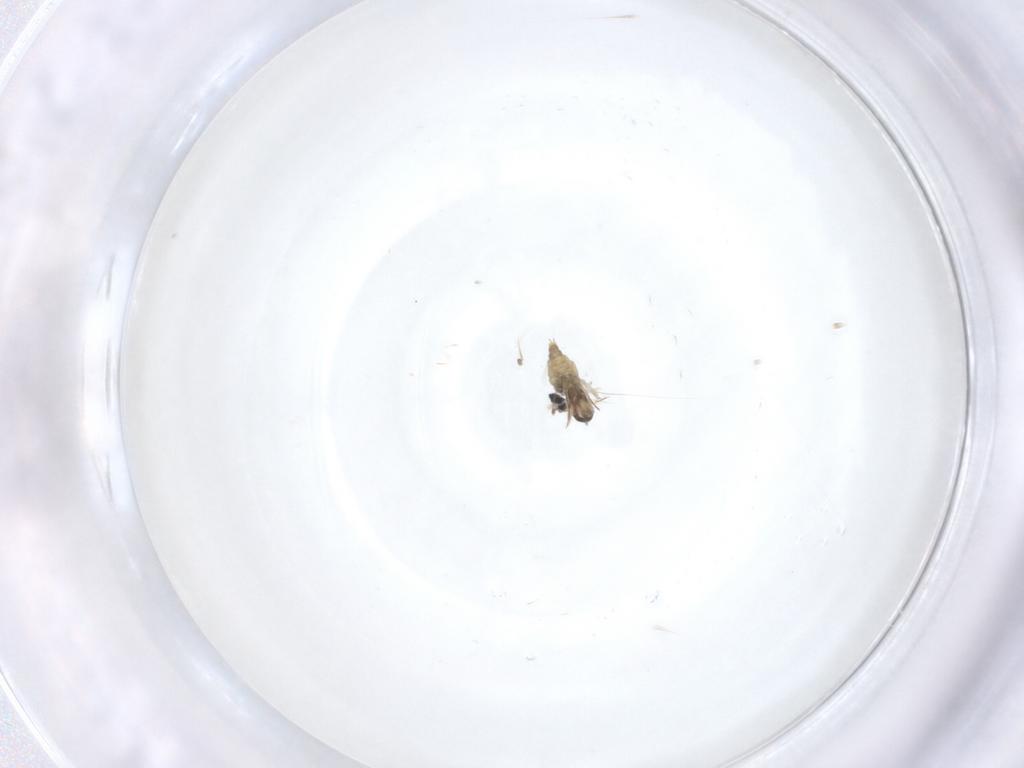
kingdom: Animalia
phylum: Arthropoda
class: Insecta
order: Diptera
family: Cecidomyiidae
